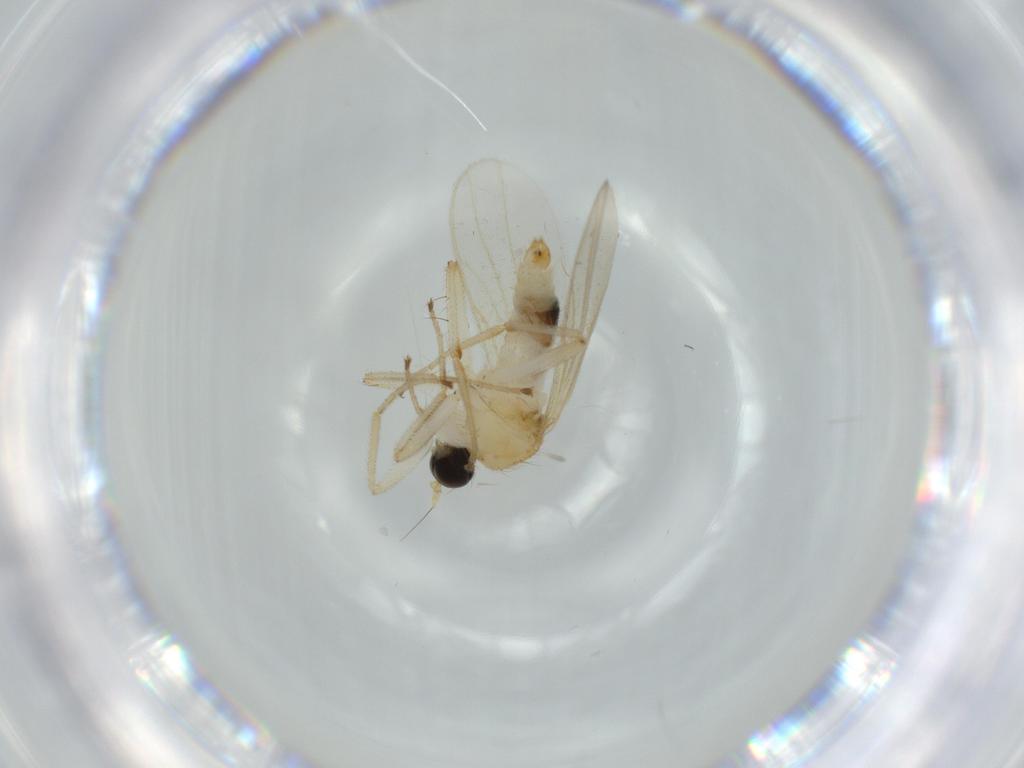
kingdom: Animalia
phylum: Arthropoda
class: Insecta
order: Diptera
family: Hybotidae
